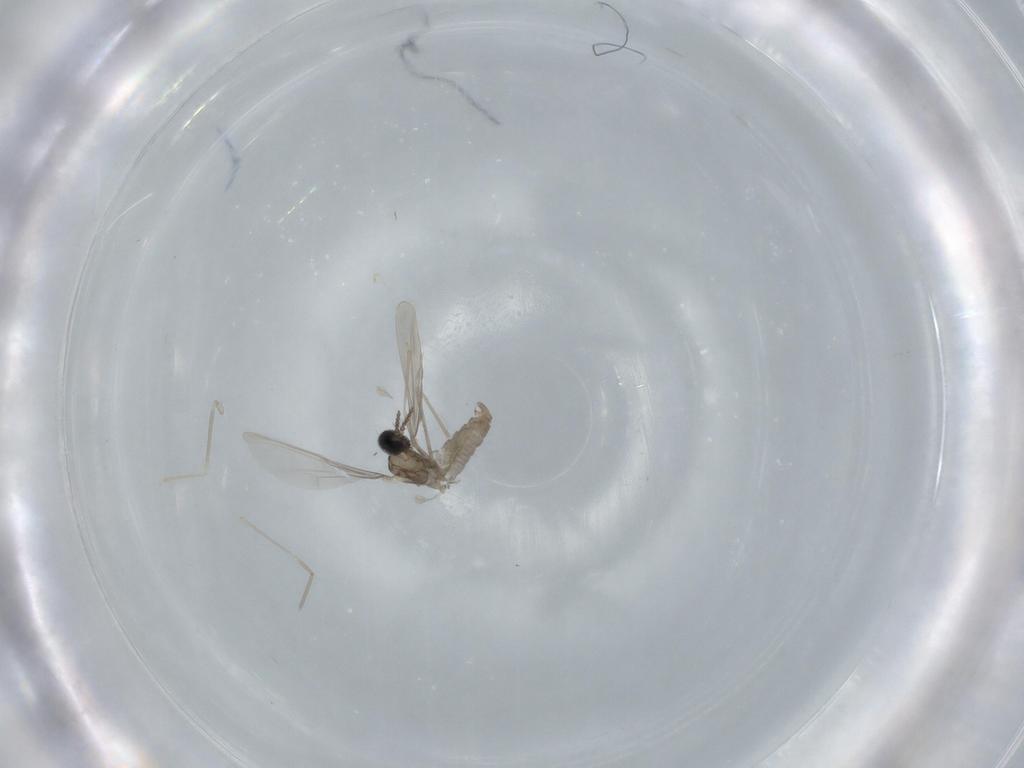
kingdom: Animalia
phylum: Arthropoda
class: Insecta
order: Diptera
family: Cecidomyiidae
